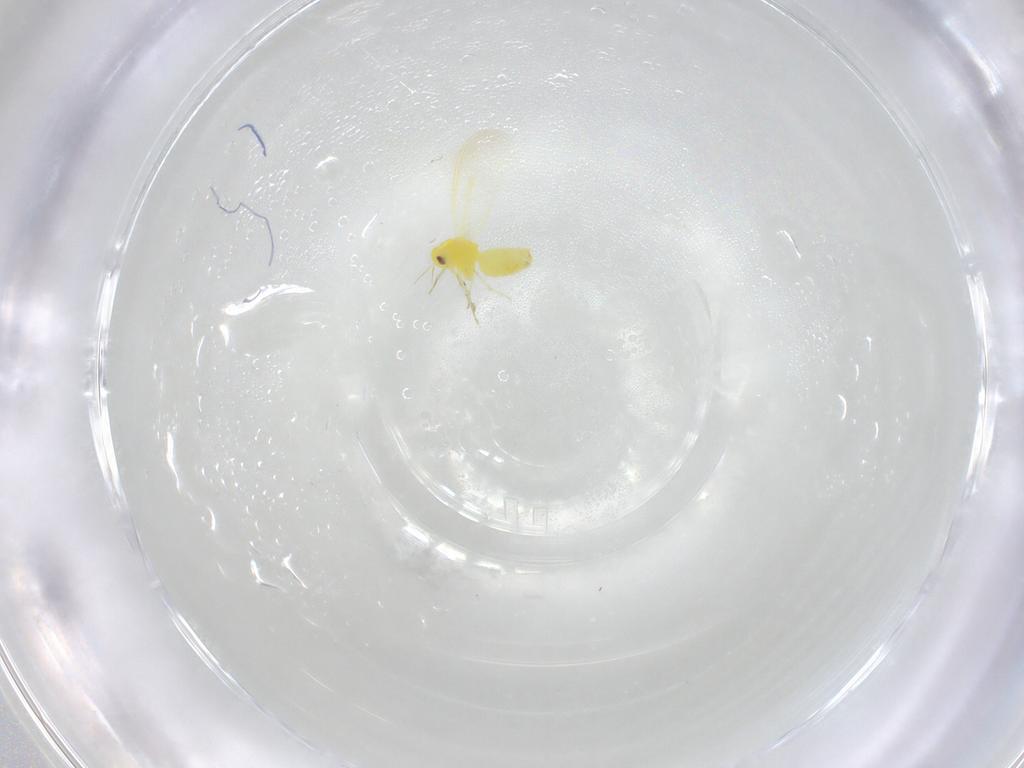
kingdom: Animalia
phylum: Arthropoda
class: Insecta
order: Hemiptera
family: Aleyrodidae
